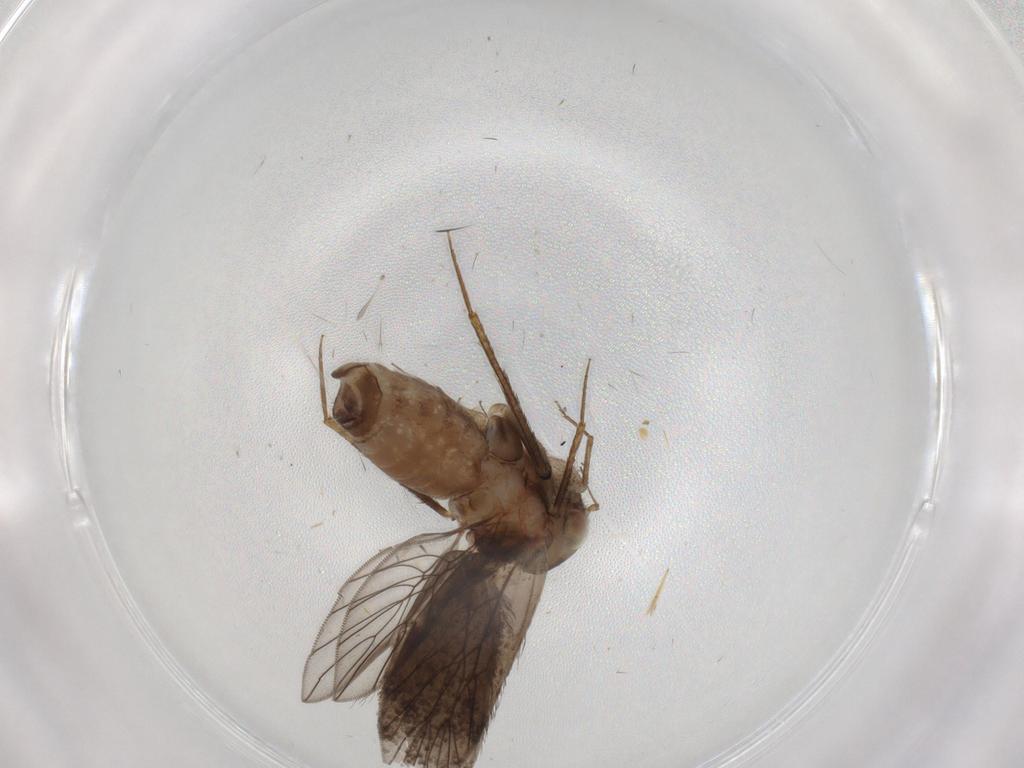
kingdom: Animalia
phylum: Arthropoda
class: Insecta
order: Psocodea
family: Lepidopsocidae
